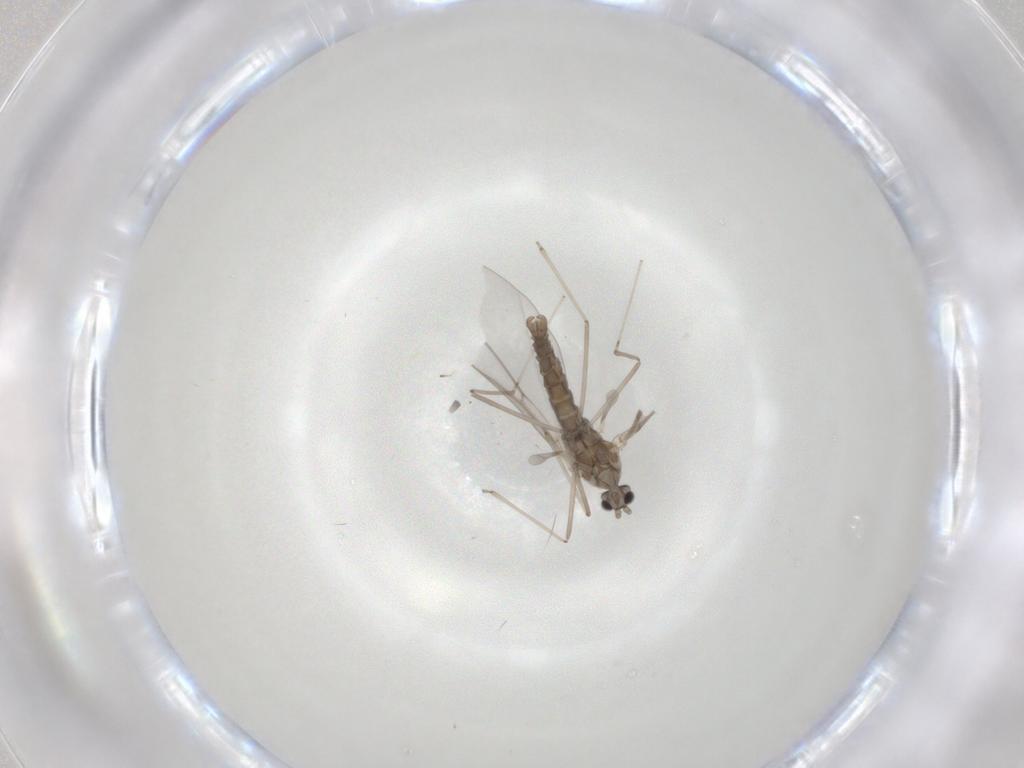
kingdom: Animalia
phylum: Arthropoda
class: Insecta
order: Diptera
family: Cecidomyiidae
